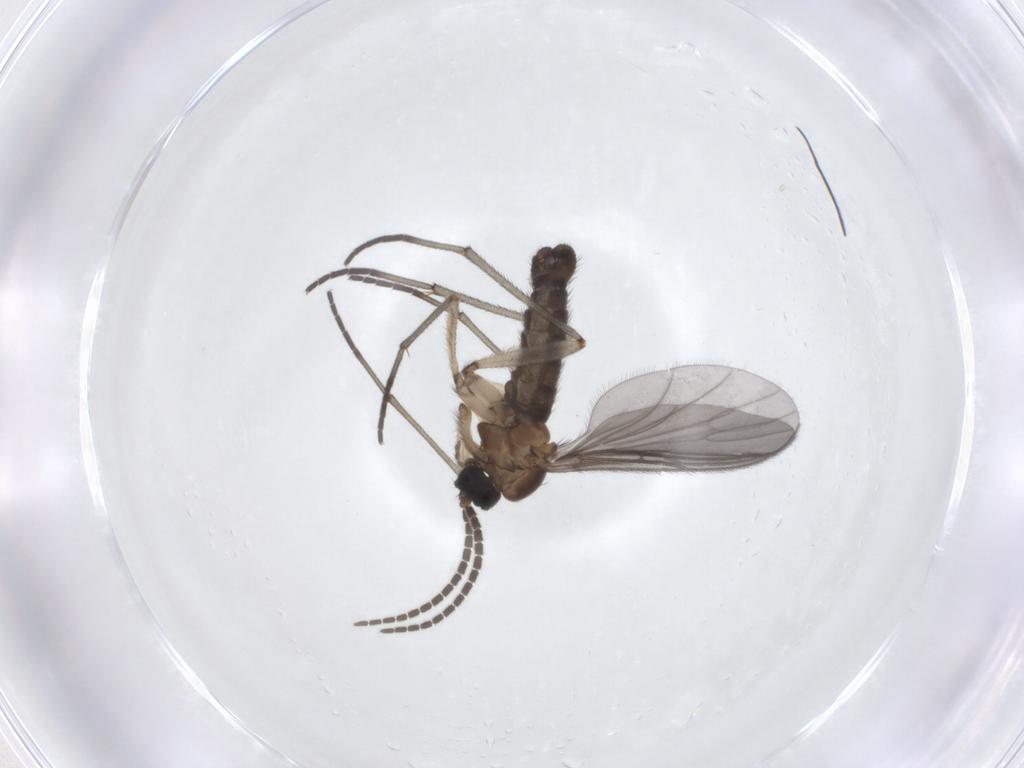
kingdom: Animalia
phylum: Arthropoda
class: Insecta
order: Diptera
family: Sciaridae
